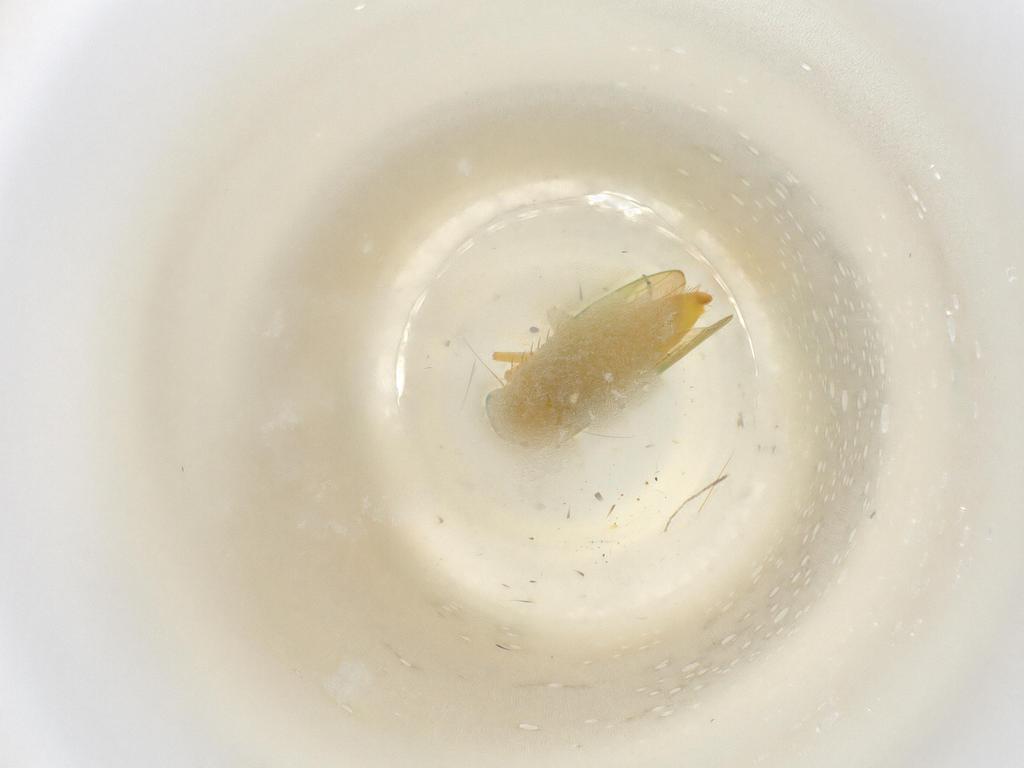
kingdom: Animalia
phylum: Arthropoda
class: Insecta
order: Hemiptera
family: Cicadellidae
